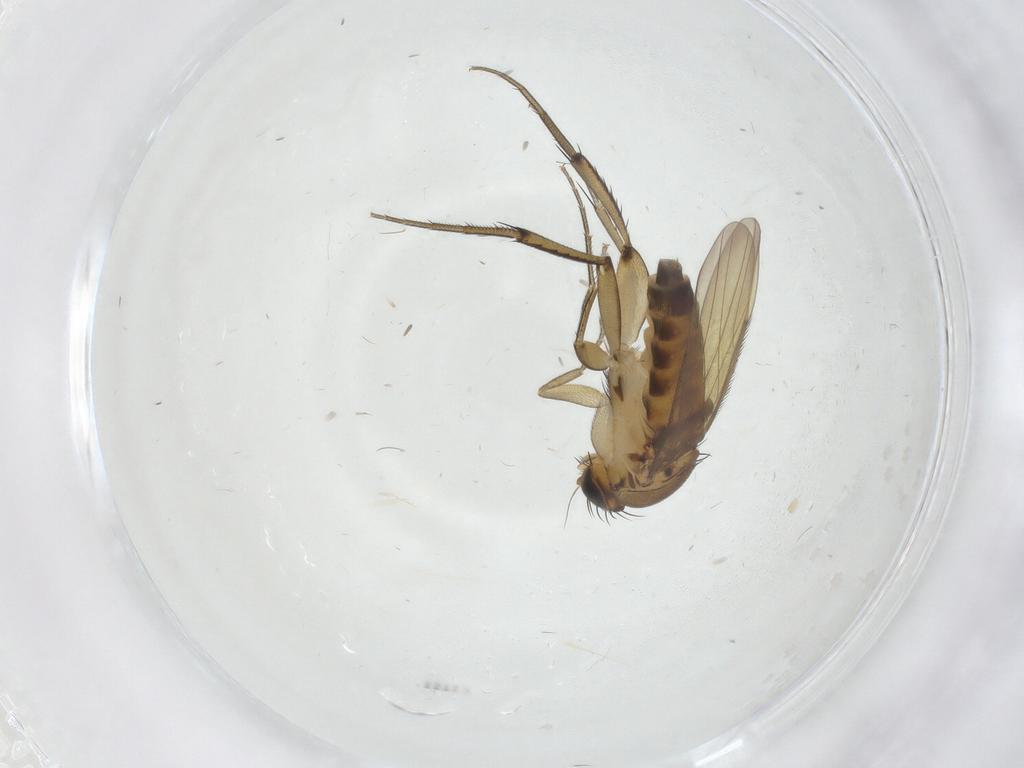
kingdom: Animalia
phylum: Arthropoda
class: Insecta
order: Diptera
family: Phoridae
